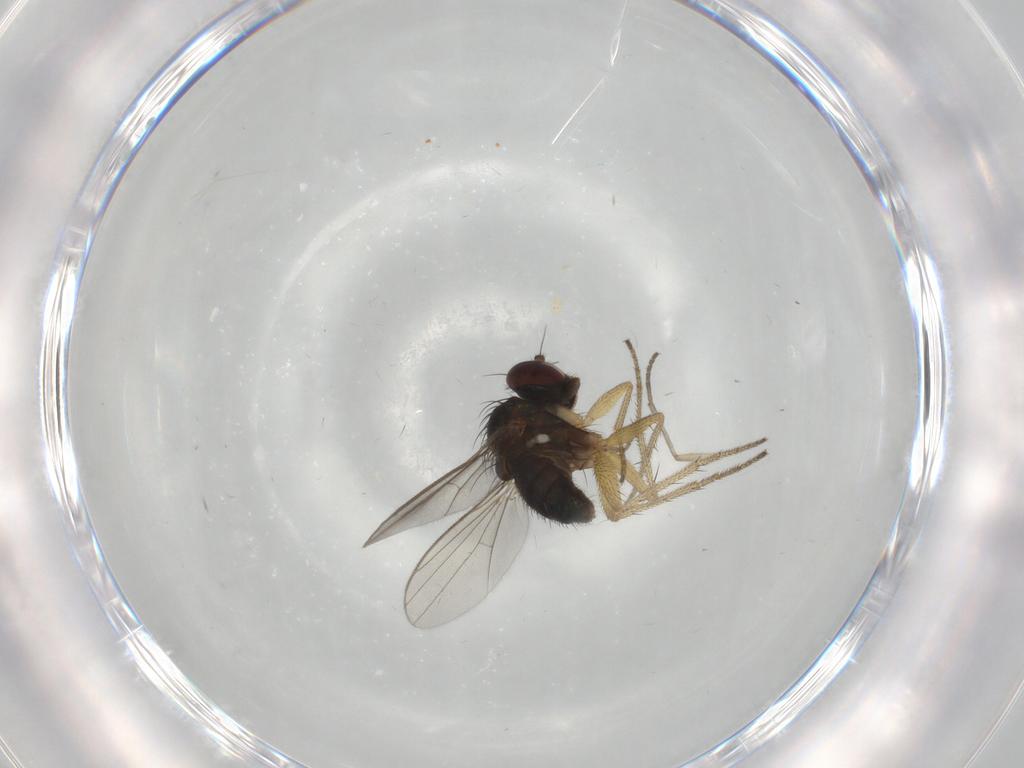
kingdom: Animalia
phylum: Arthropoda
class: Insecta
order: Diptera
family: Dolichopodidae
